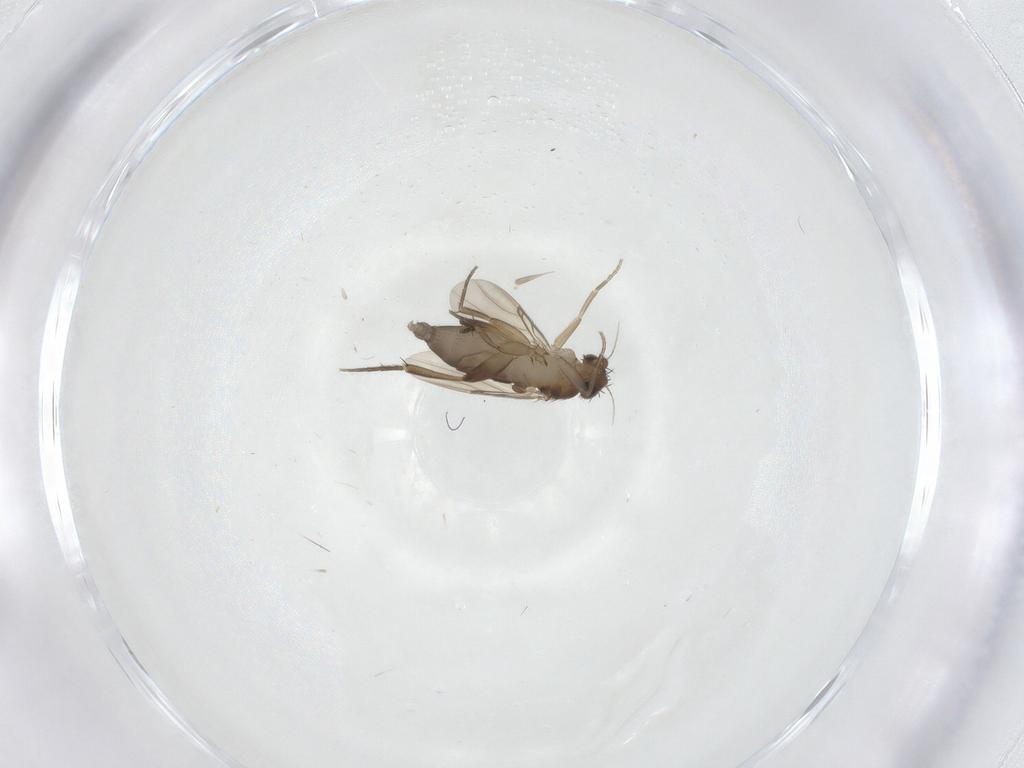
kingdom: Animalia
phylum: Arthropoda
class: Insecta
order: Diptera
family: Phoridae
